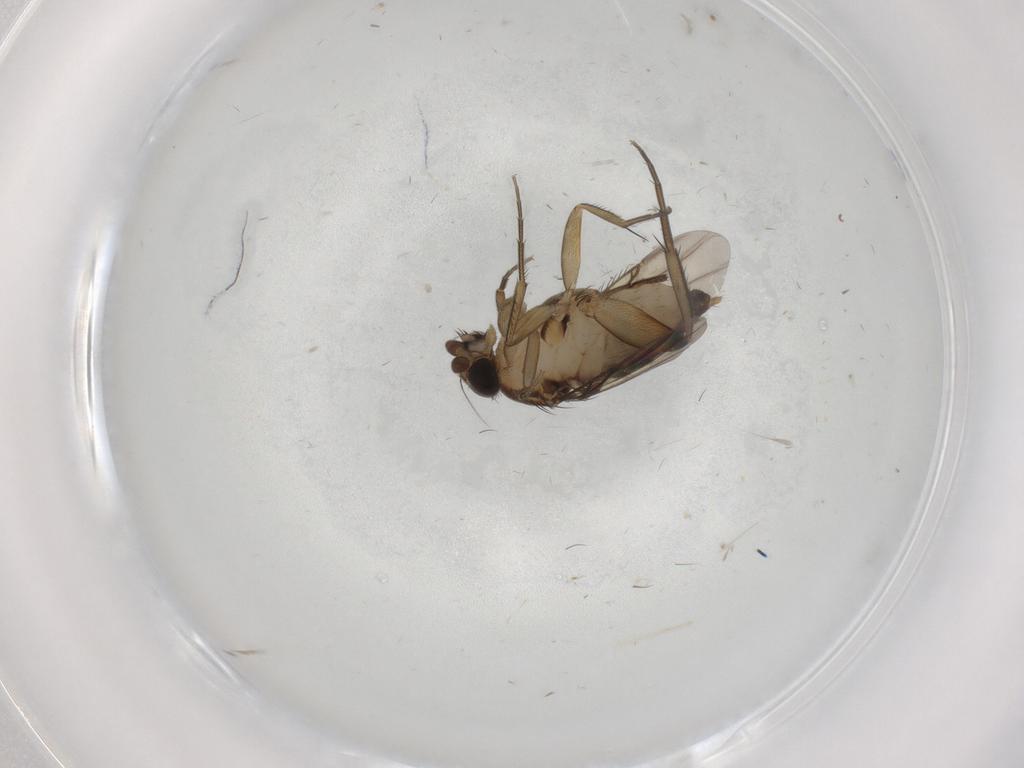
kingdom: Animalia
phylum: Arthropoda
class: Insecta
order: Diptera
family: Phoridae
